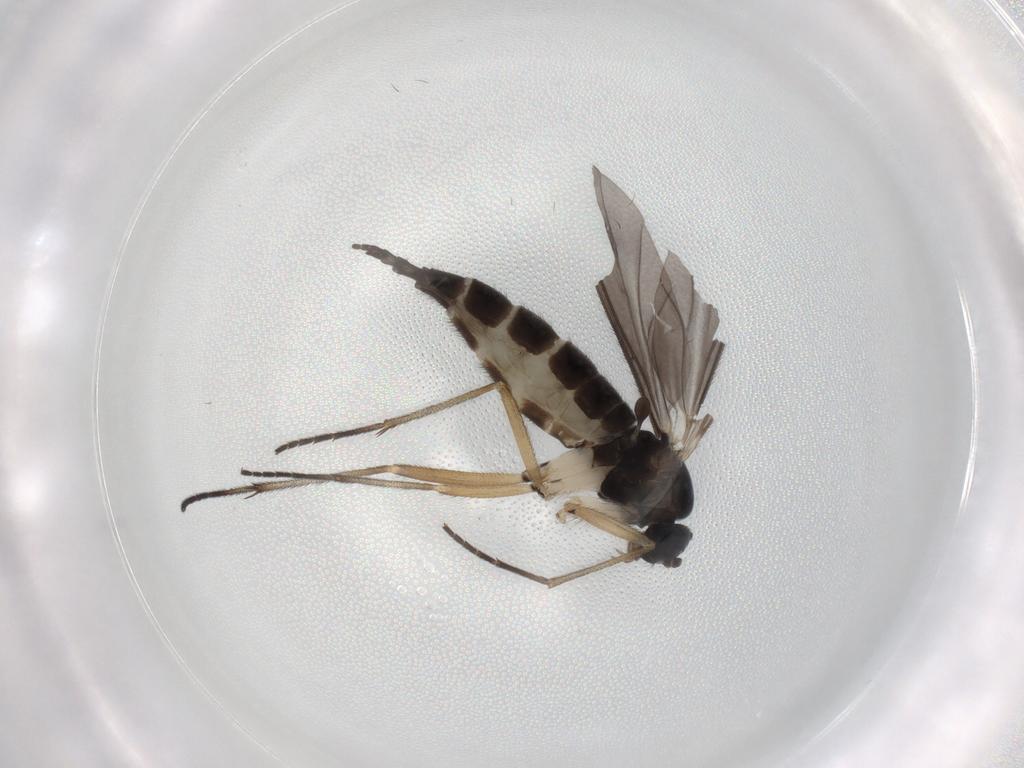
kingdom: Animalia
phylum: Arthropoda
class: Insecta
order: Diptera
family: Sciaridae
